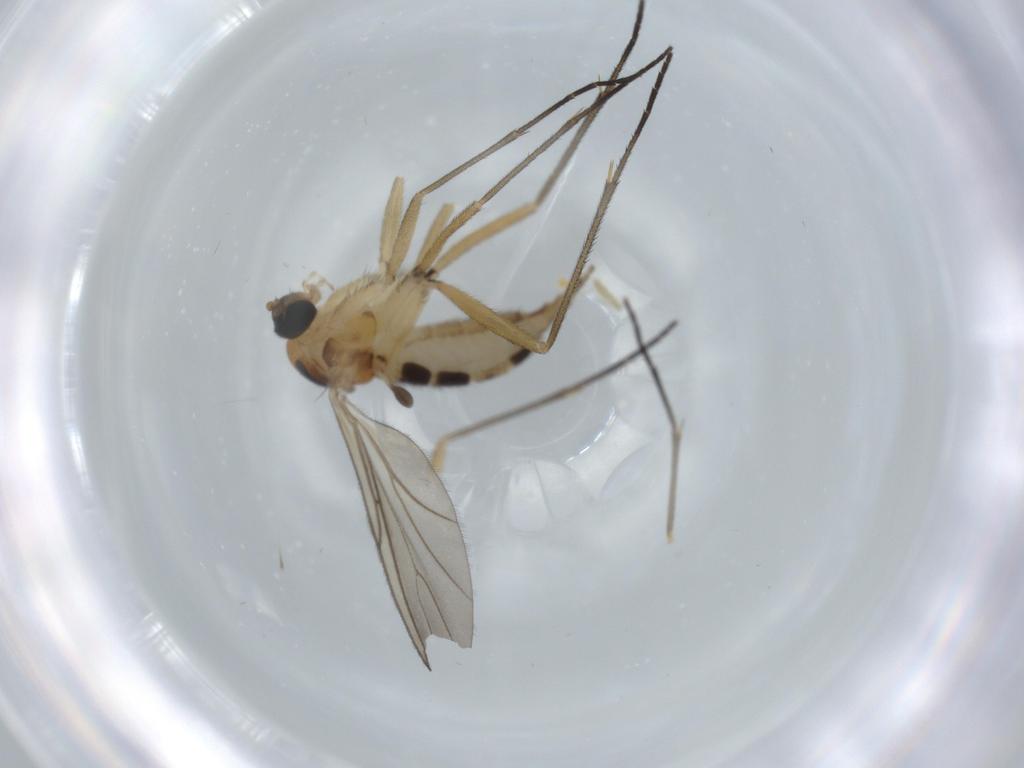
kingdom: Animalia
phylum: Arthropoda
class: Insecta
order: Diptera
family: Sciaridae
